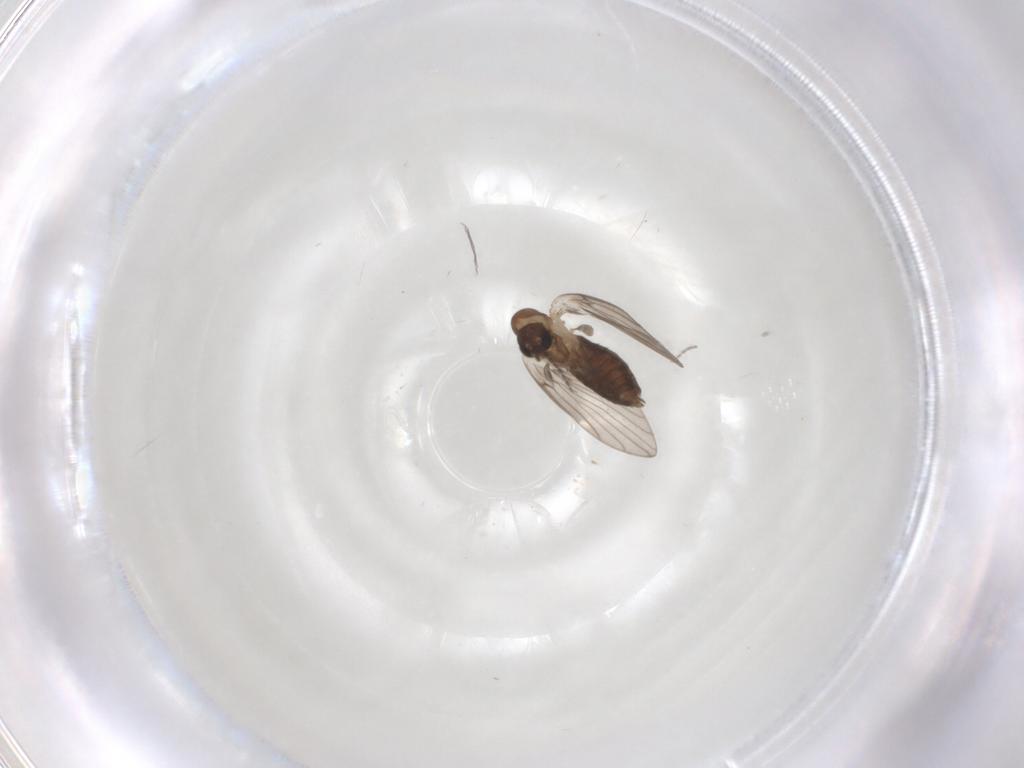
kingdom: Animalia
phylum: Arthropoda
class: Insecta
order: Diptera
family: Psychodidae
